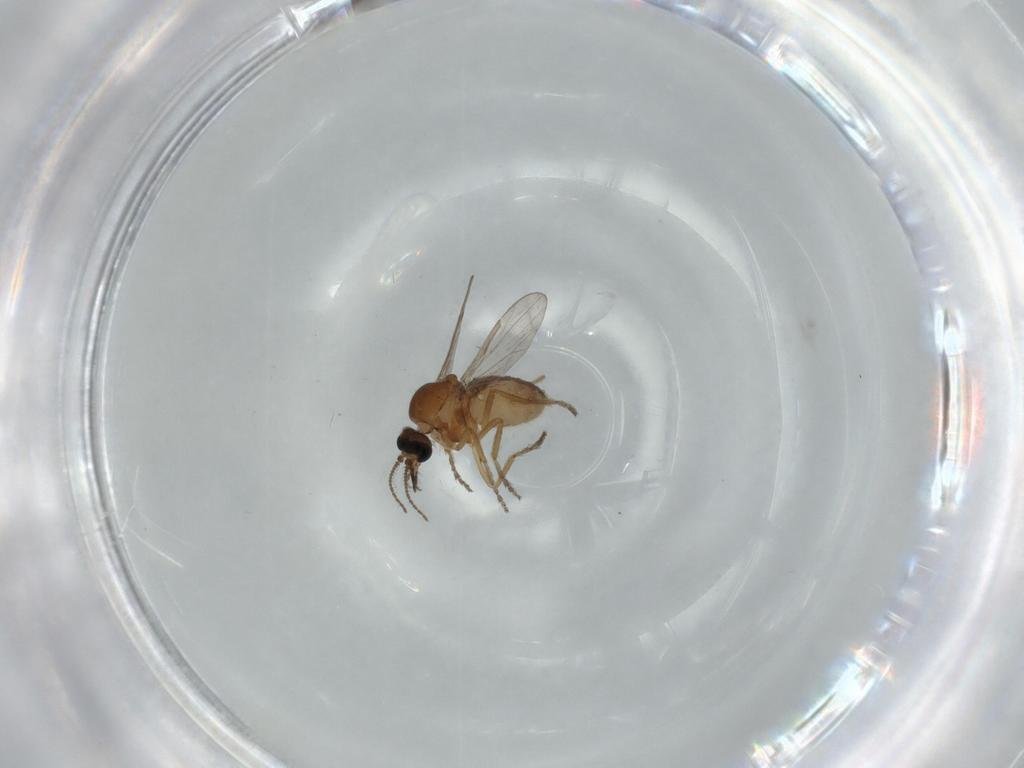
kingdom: Animalia
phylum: Arthropoda
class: Insecta
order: Diptera
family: Ceratopogonidae
